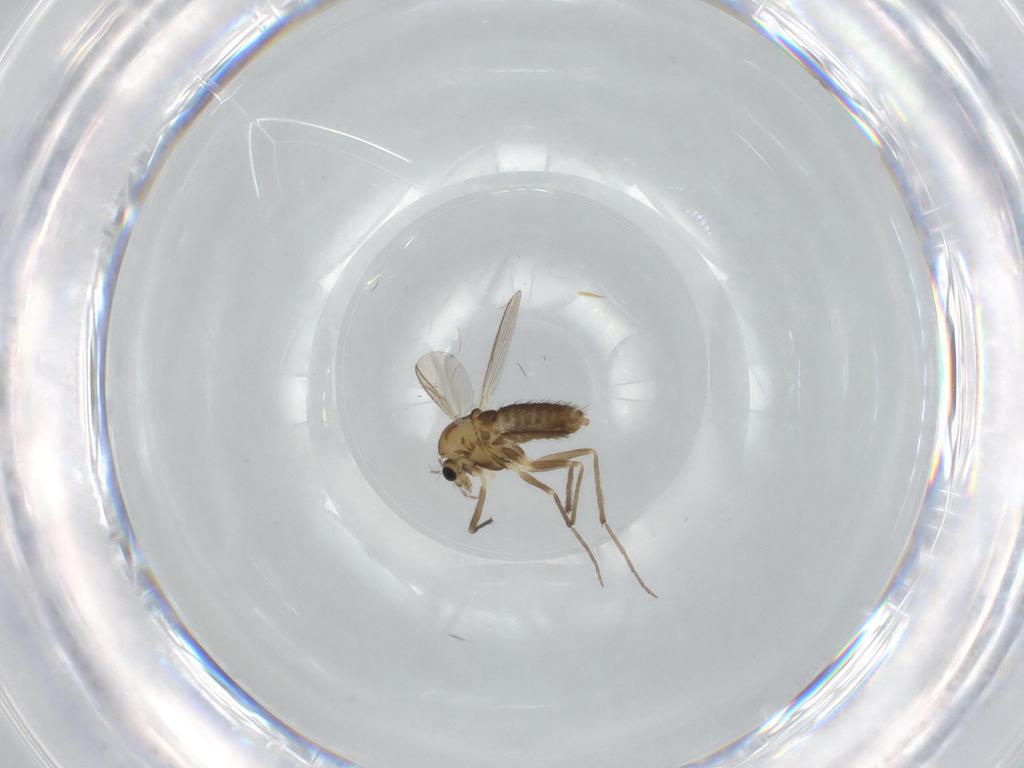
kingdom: Animalia
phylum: Arthropoda
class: Insecta
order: Diptera
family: Chironomidae
